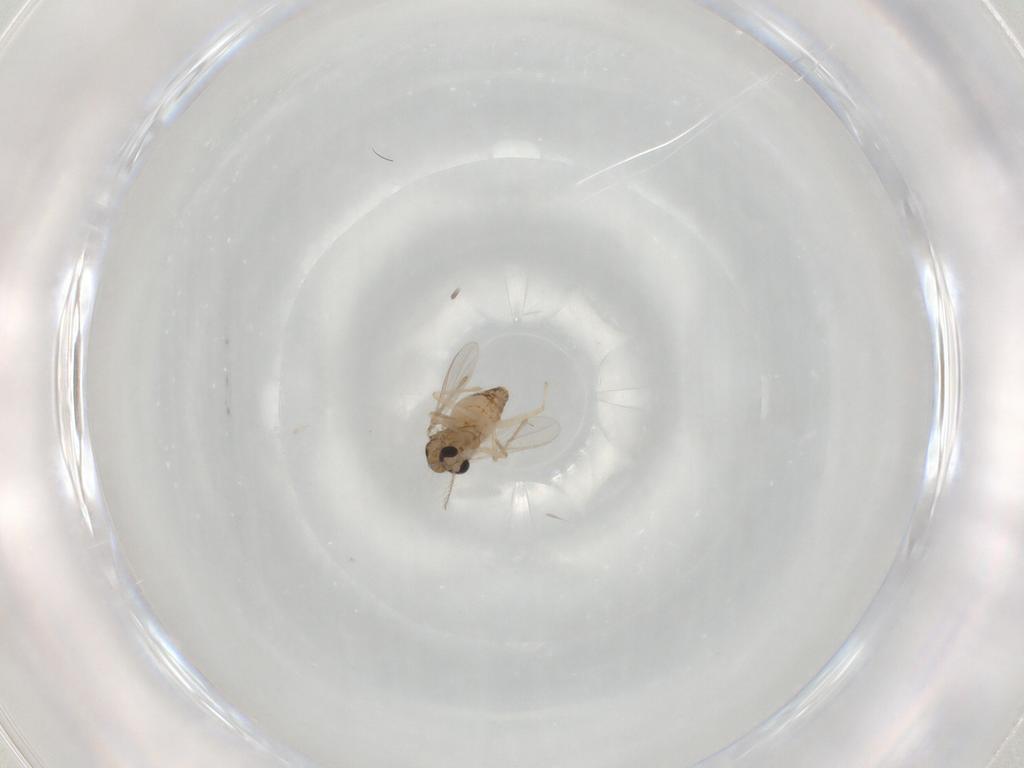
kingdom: Animalia
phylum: Arthropoda
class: Insecta
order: Diptera
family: Chironomidae
